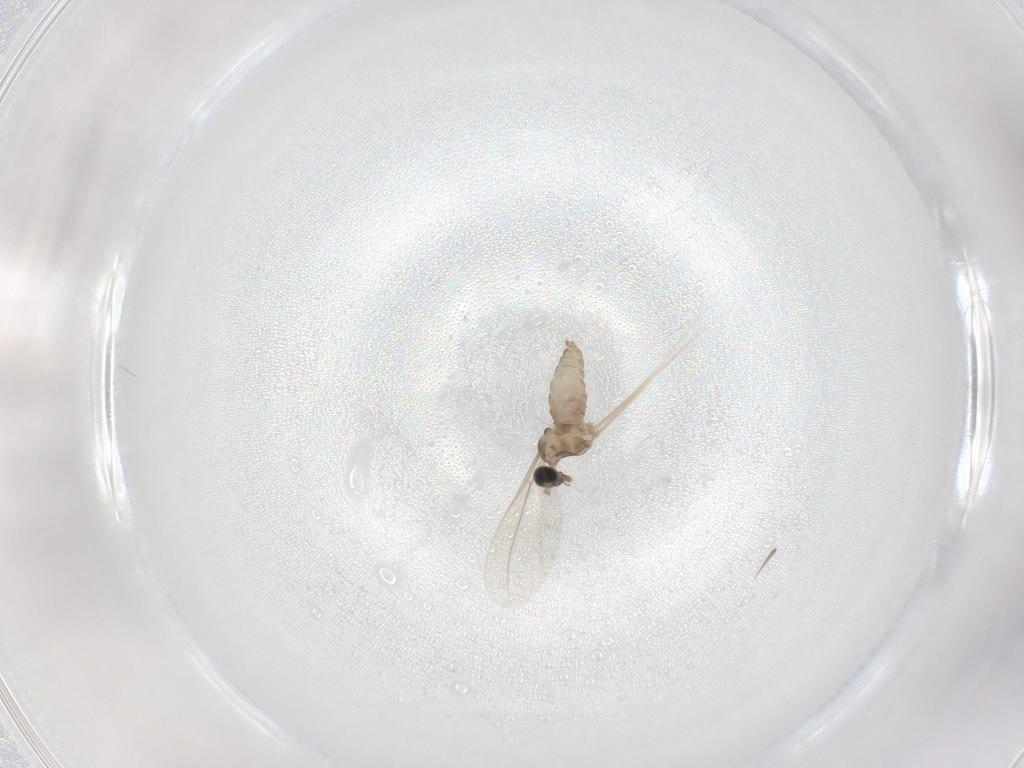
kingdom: Animalia
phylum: Arthropoda
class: Insecta
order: Diptera
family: Cecidomyiidae
